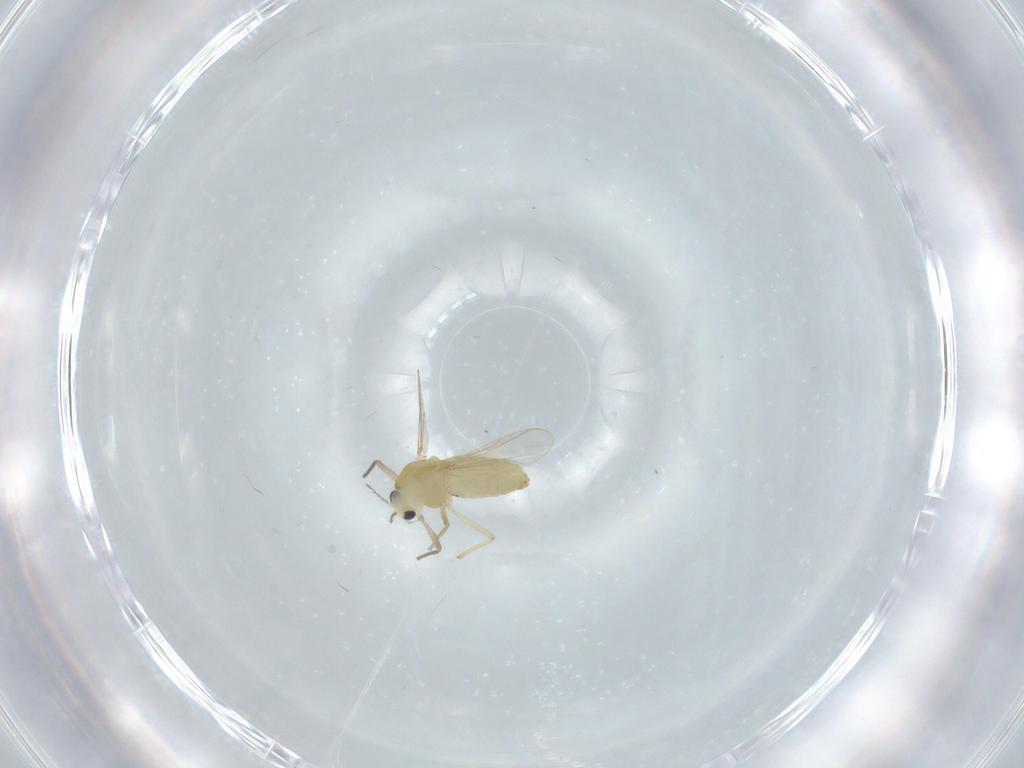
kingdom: Animalia
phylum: Arthropoda
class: Insecta
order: Diptera
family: Chironomidae
